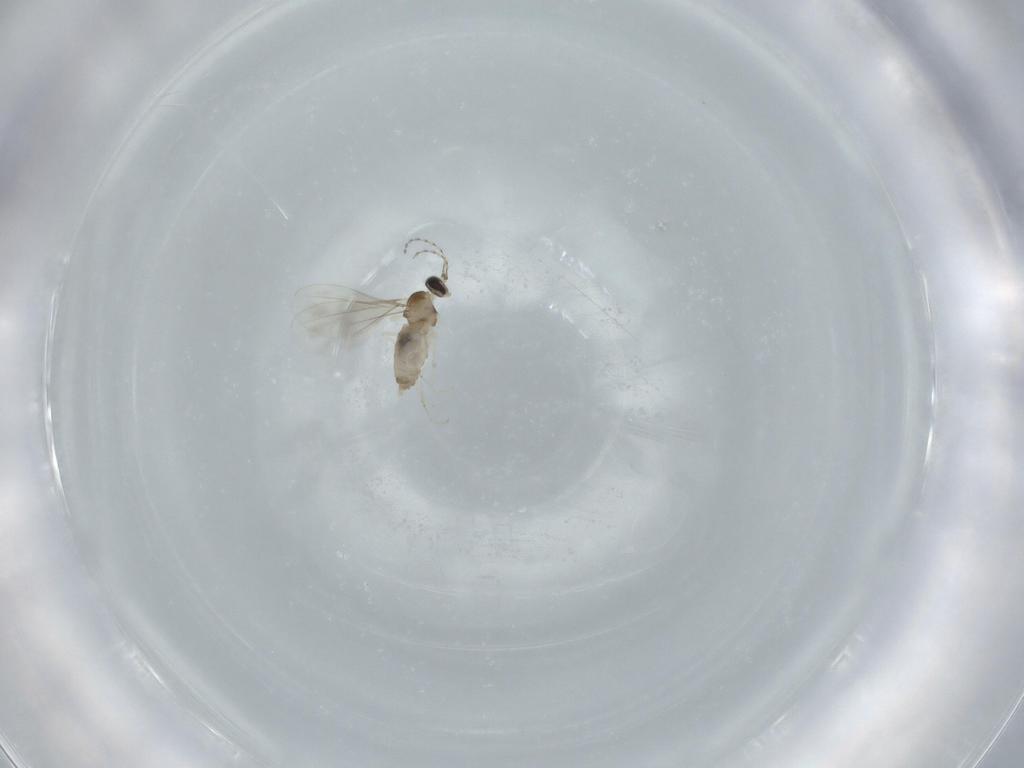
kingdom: Animalia
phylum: Arthropoda
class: Insecta
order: Diptera
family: Cecidomyiidae
